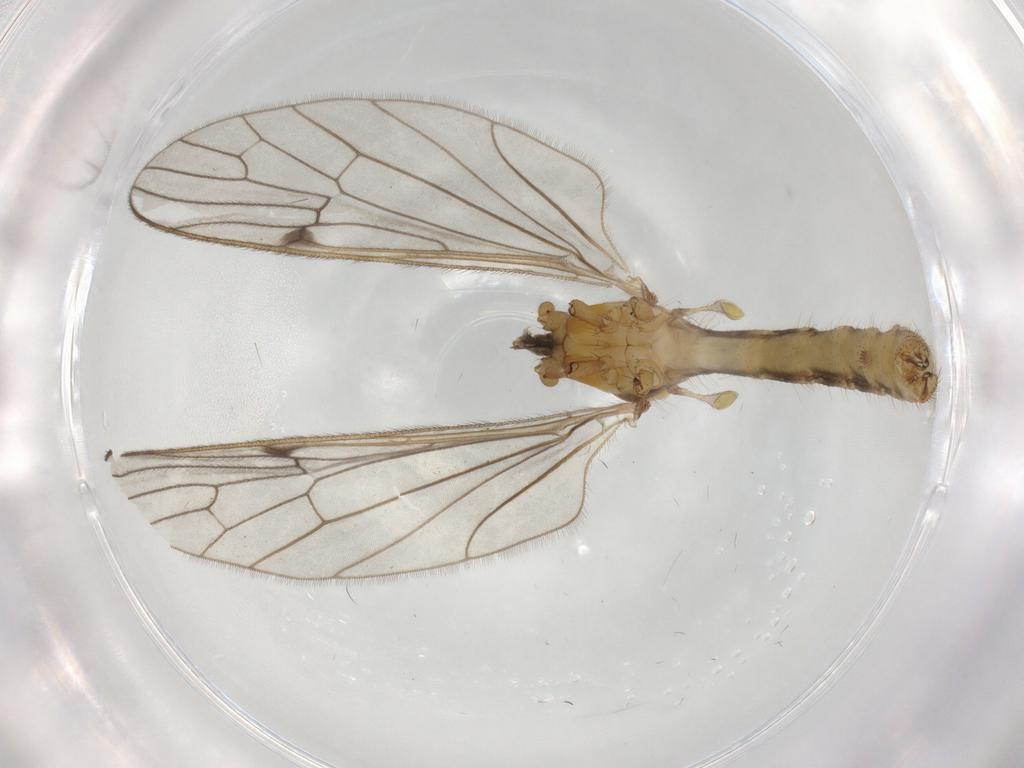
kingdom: Animalia
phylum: Arthropoda
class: Insecta
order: Diptera
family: Limoniidae
